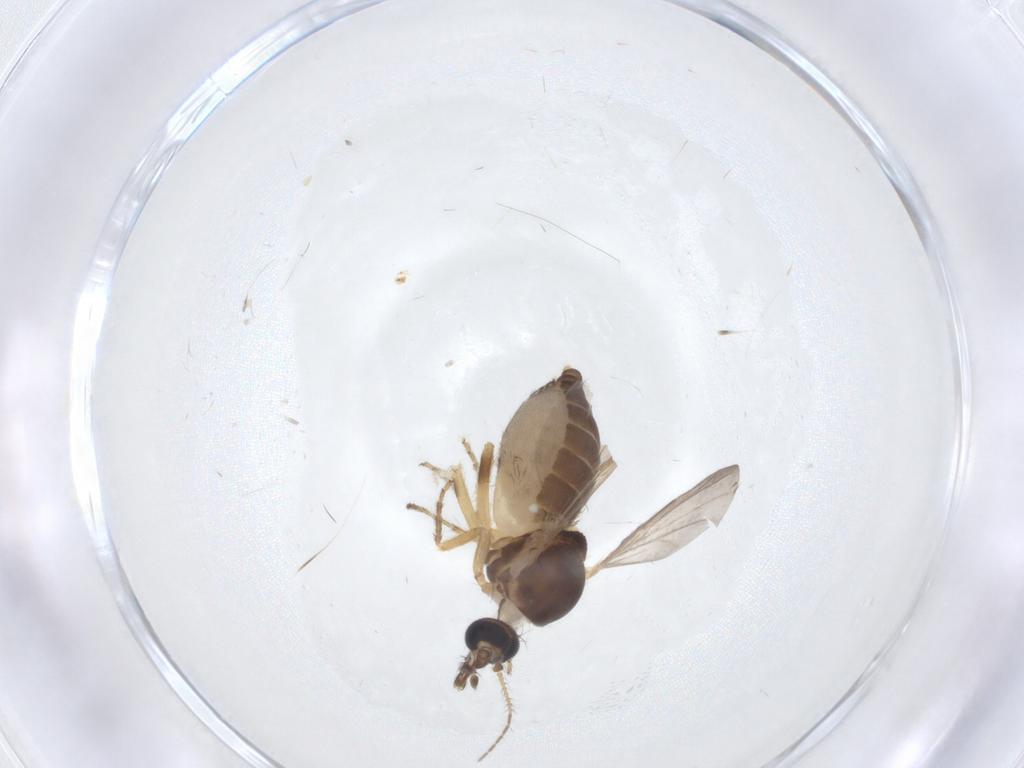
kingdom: Animalia
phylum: Arthropoda
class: Insecta
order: Diptera
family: Ceratopogonidae
